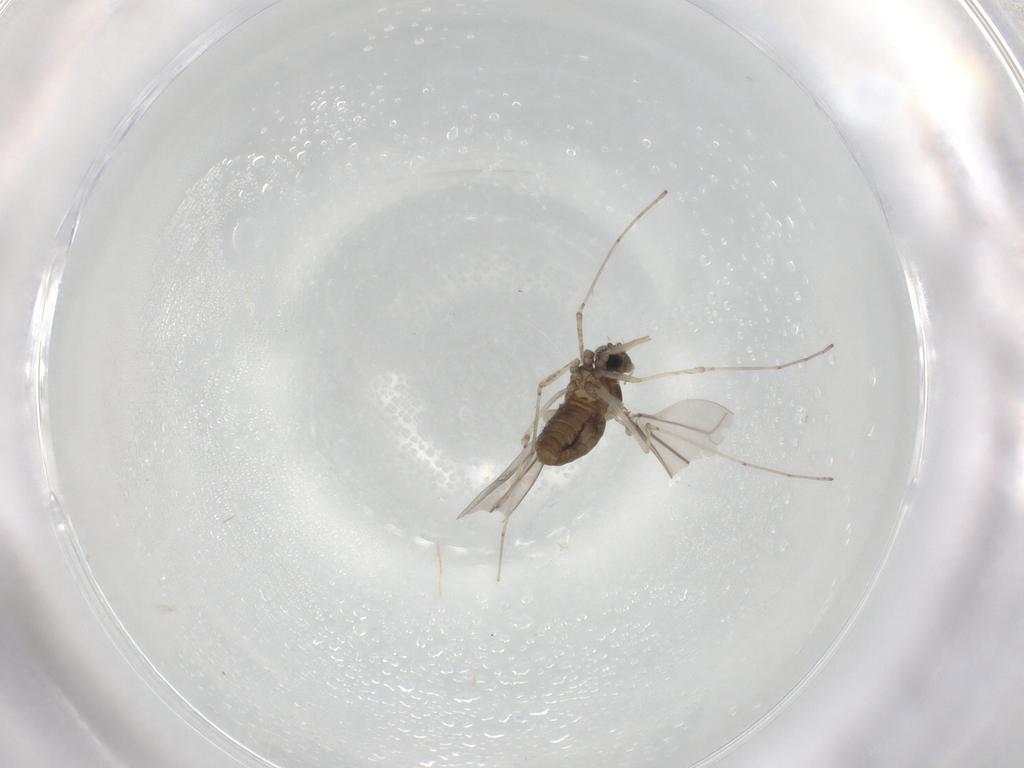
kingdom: Animalia
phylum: Arthropoda
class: Insecta
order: Diptera
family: Cecidomyiidae
